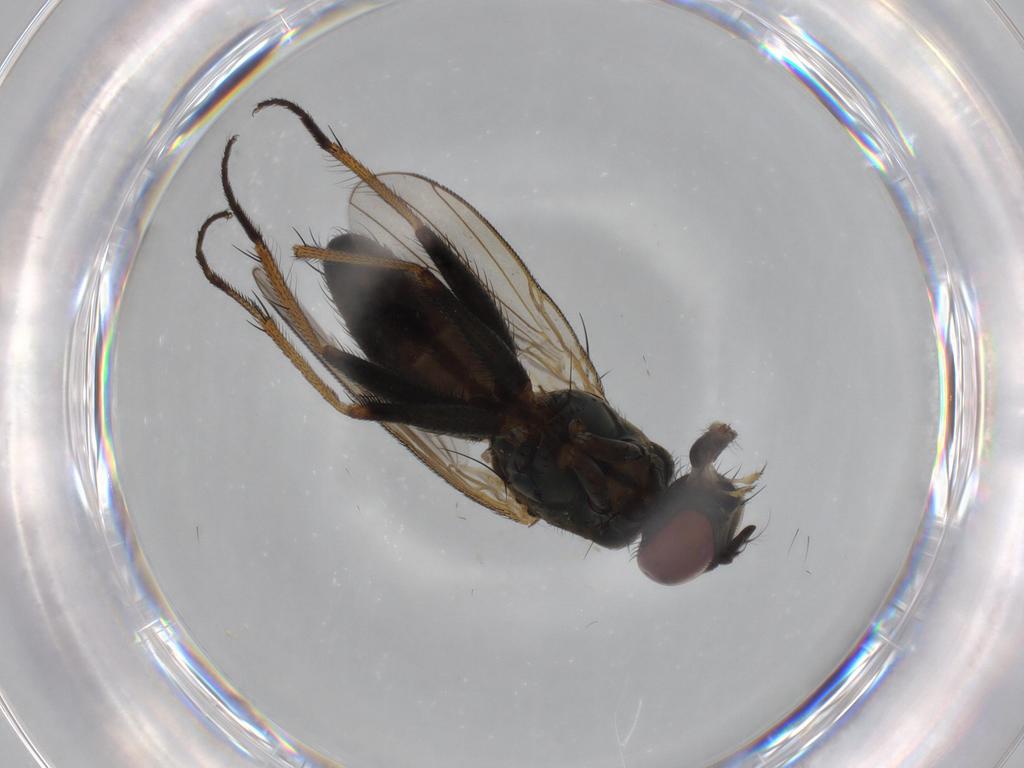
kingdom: Animalia
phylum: Arthropoda
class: Insecta
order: Diptera
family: Muscidae
